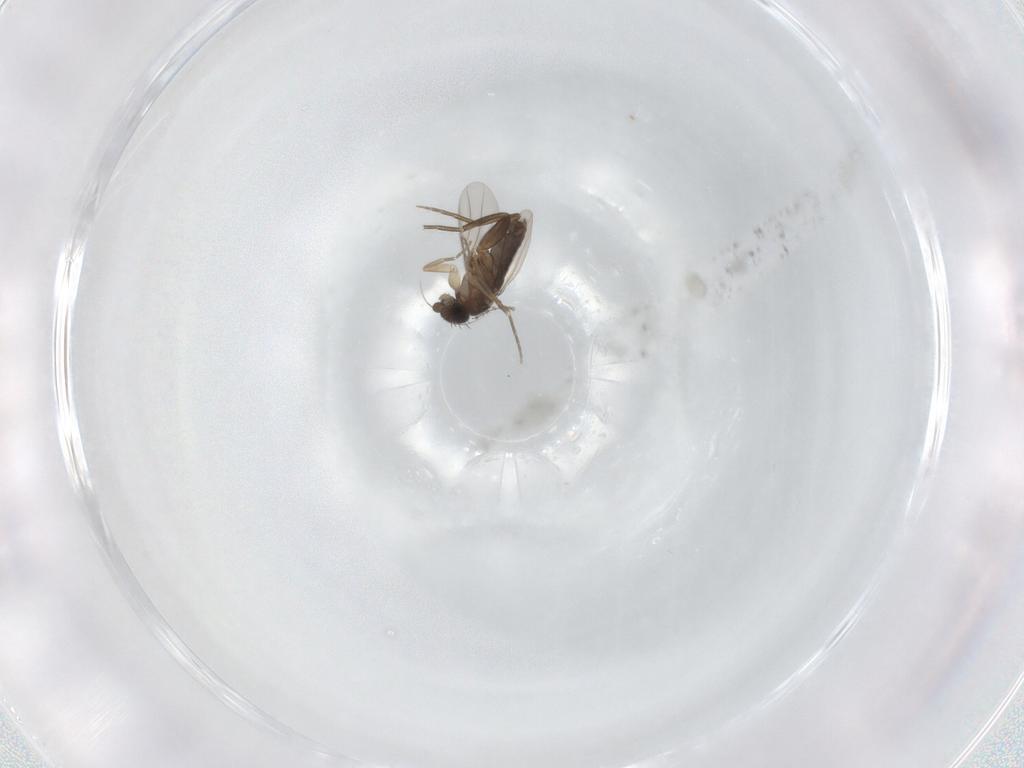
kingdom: Animalia
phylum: Arthropoda
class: Insecta
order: Diptera
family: Phoridae
